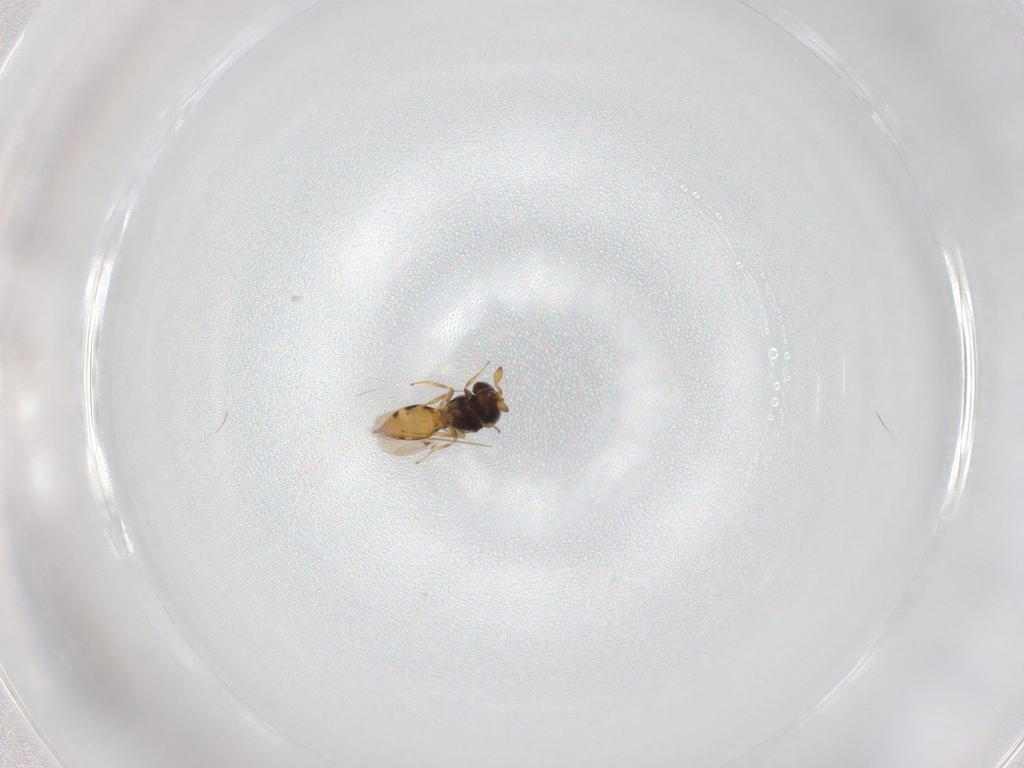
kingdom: Animalia
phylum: Arthropoda
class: Insecta
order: Hymenoptera
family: Scelionidae
